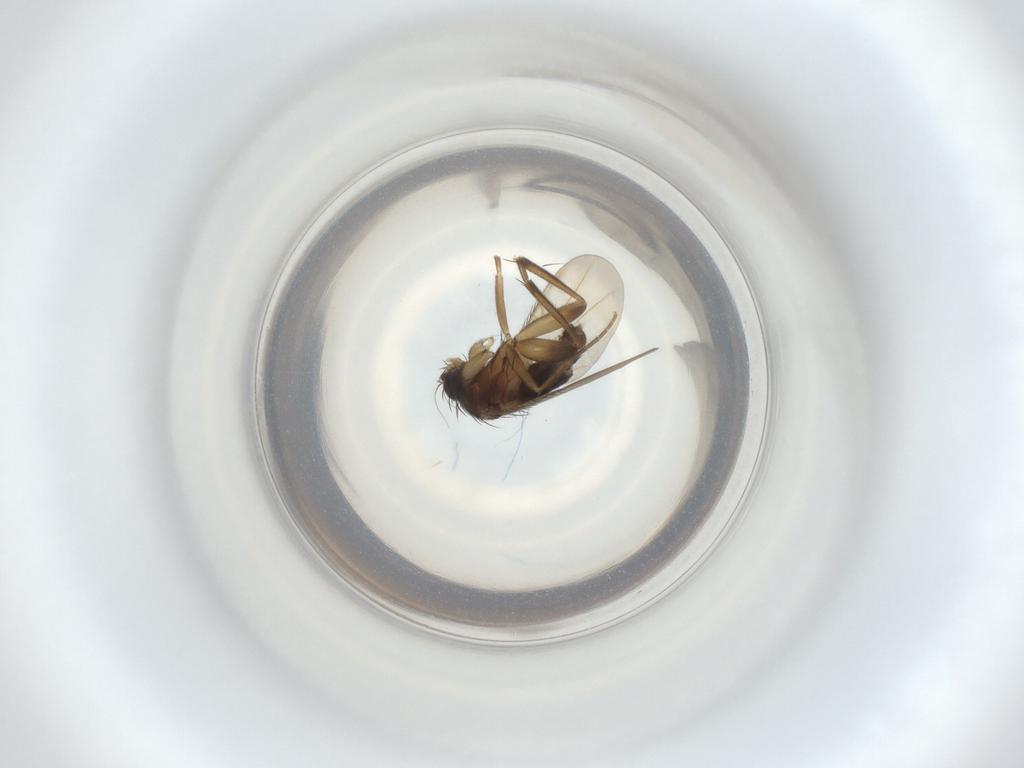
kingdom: Animalia
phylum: Arthropoda
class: Insecta
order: Diptera
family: Phoridae
